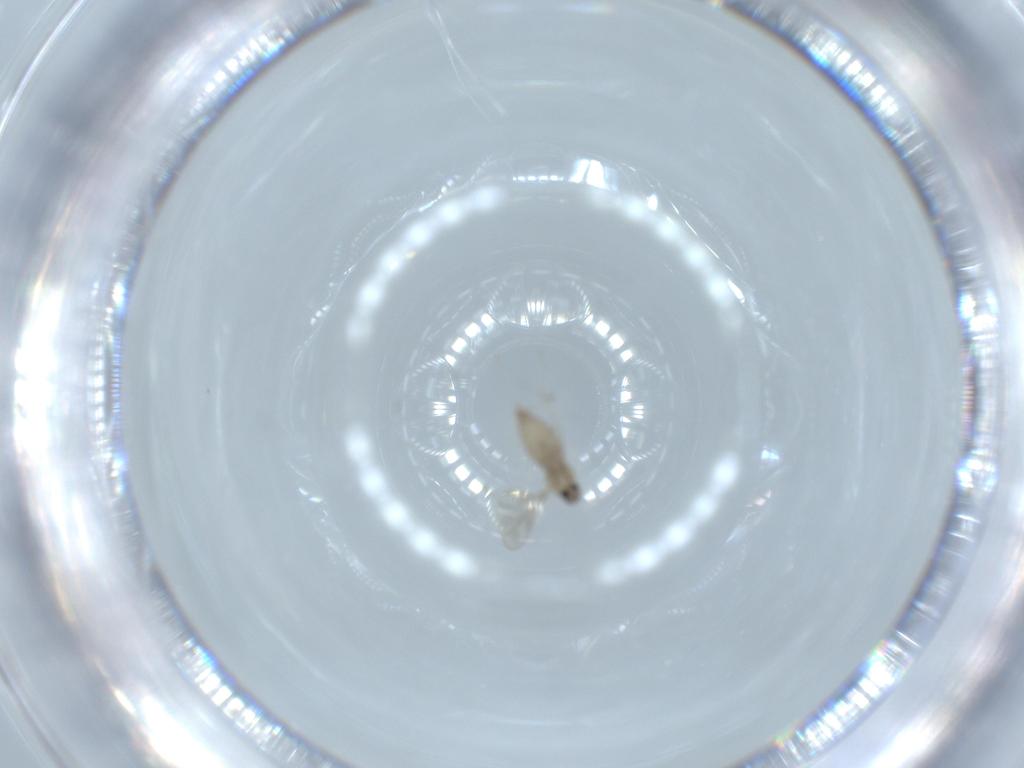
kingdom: Animalia
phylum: Arthropoda
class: Insecta
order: Diptera
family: Cecidomyiidae
